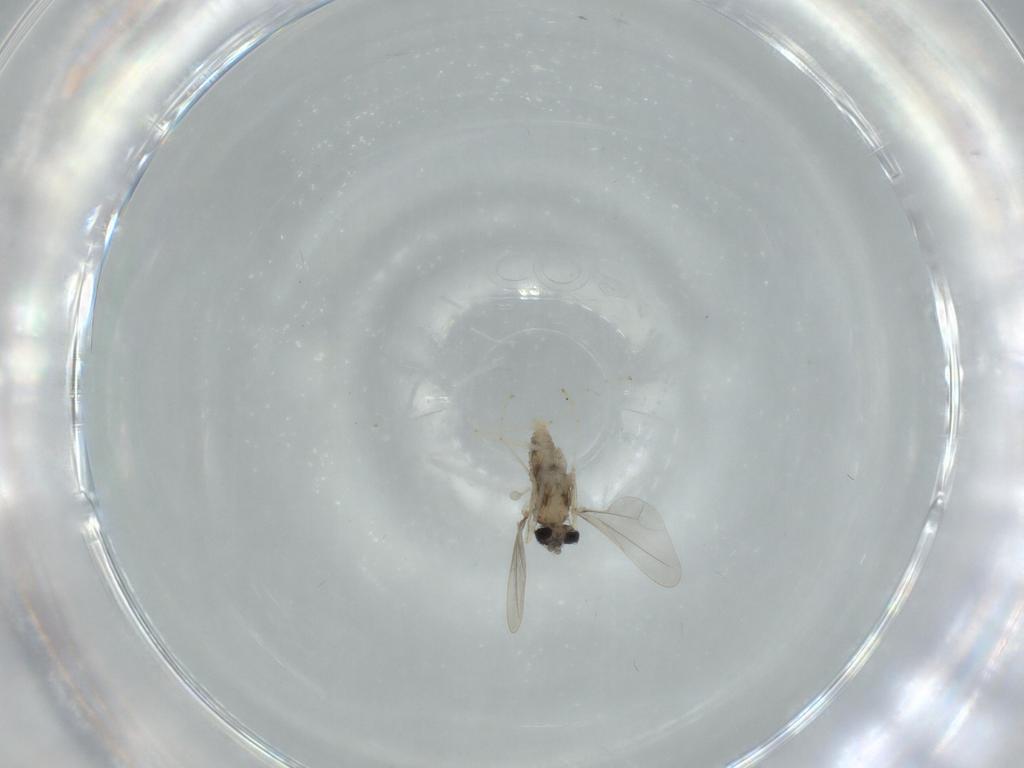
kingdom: Animalia
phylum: Arthropoda
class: Insecta
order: Diptera
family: Cecidomyiidae
